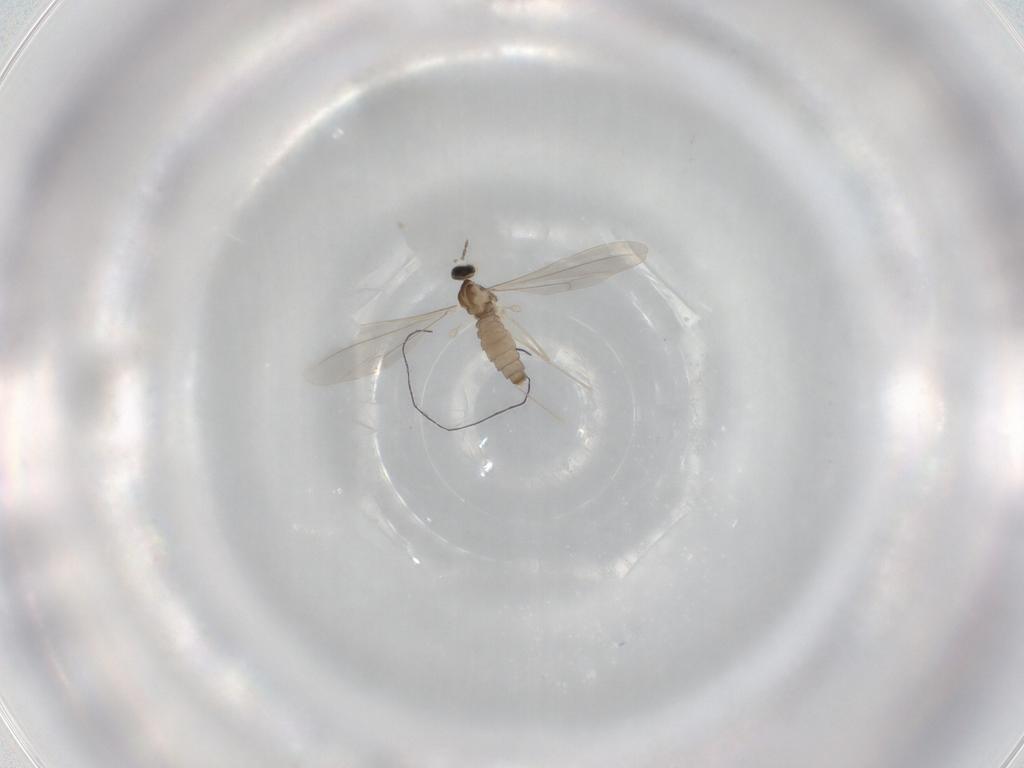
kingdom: Animalia
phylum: Arthropoda
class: Insecta
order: Diptera
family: Cecidomyiidae
